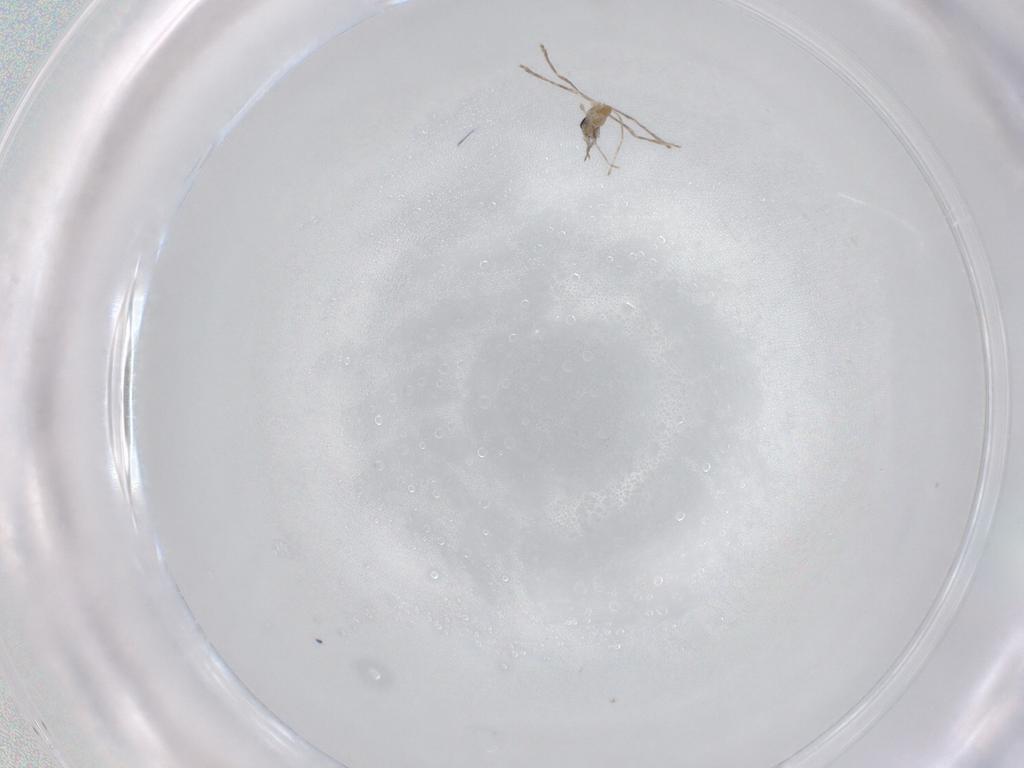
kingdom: Animalia
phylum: Arthropoda
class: Insecta
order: Diptera
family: Cecidomyiidae
